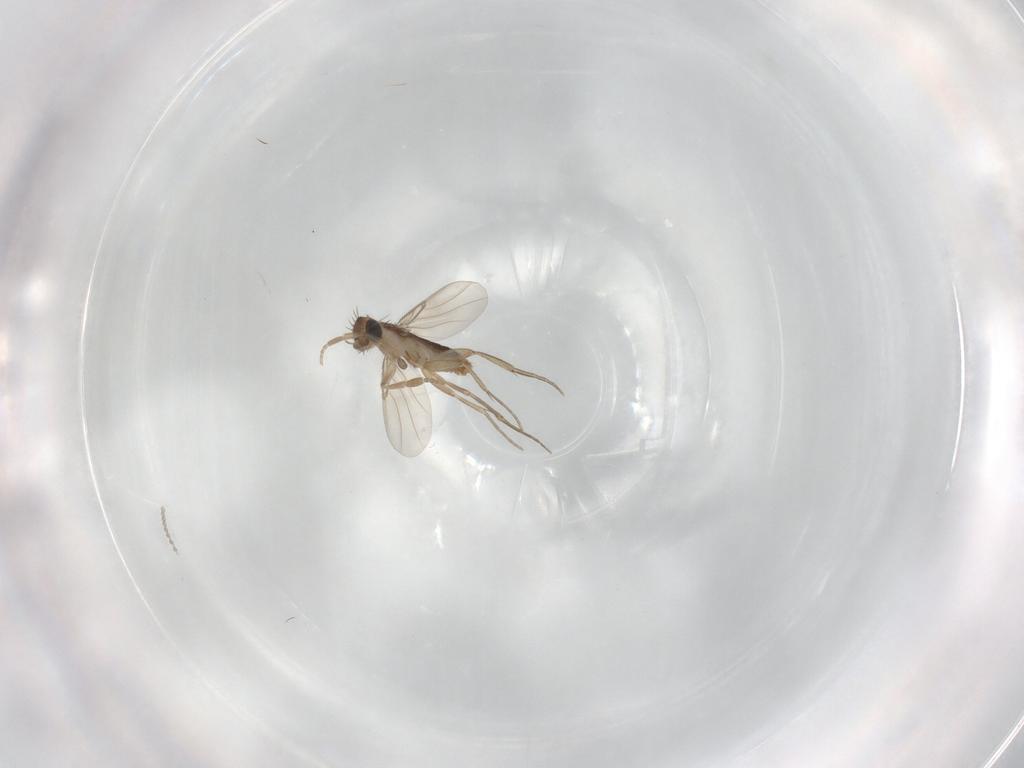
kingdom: Animalia
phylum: Arthropoda
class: Insecta
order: Diptera
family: Phoridae
